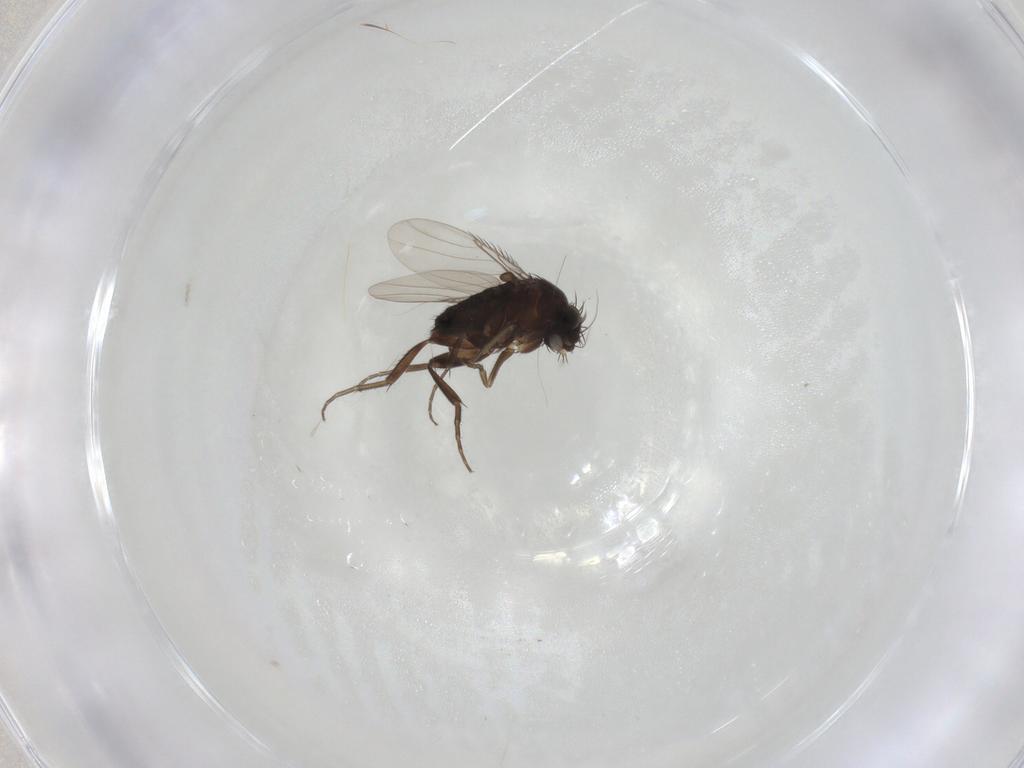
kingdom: Animalia
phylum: Arthropoda
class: Insecta
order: Diptera
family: Phoridae
